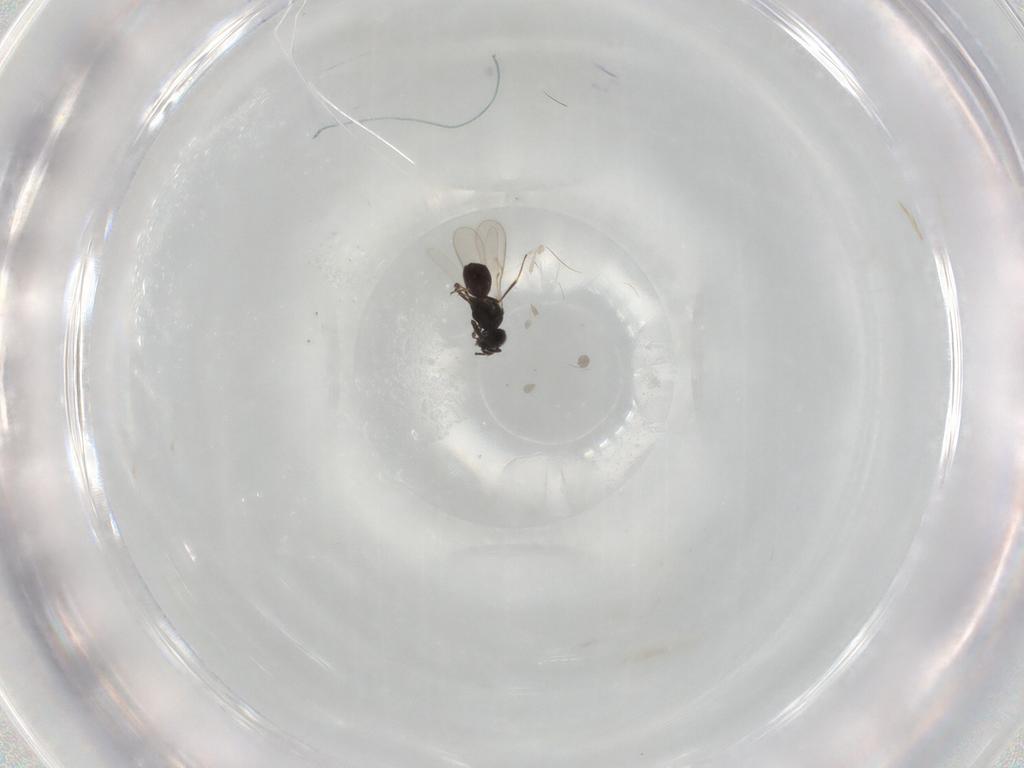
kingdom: Animalia
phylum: Arthropoda
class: Insecta
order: Hymenoptera
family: Scelionidae
